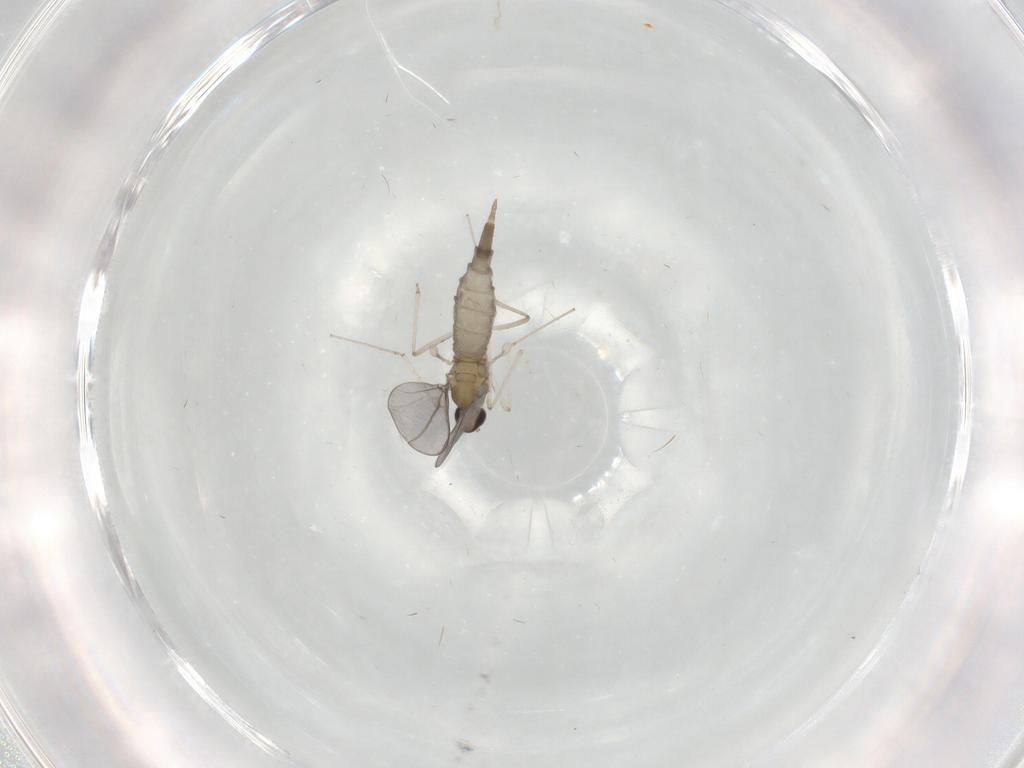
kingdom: Animalia
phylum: Arthropoda
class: Insecta
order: Diptera
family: Cecidomyiidae
